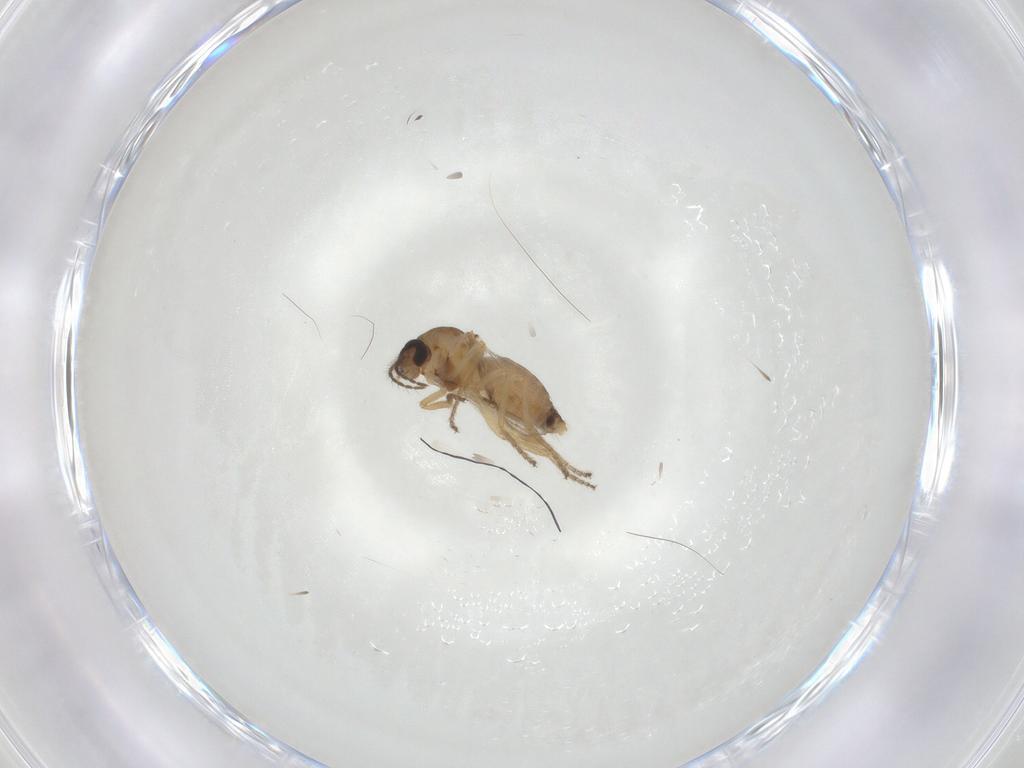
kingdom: Animalia
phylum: Arthropoda
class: Insecta
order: Diptera
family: Ceratopogonidae
